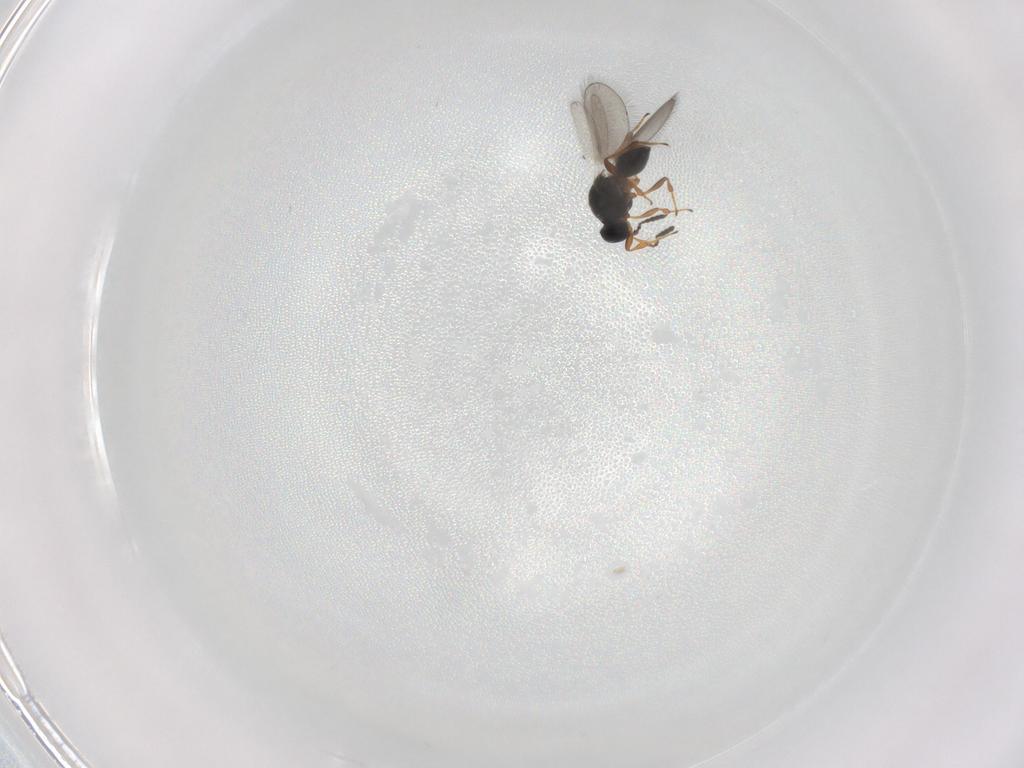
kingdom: Animalia
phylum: Arthropoda
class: Insecta
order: Hymenoptera
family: Platygastridae
